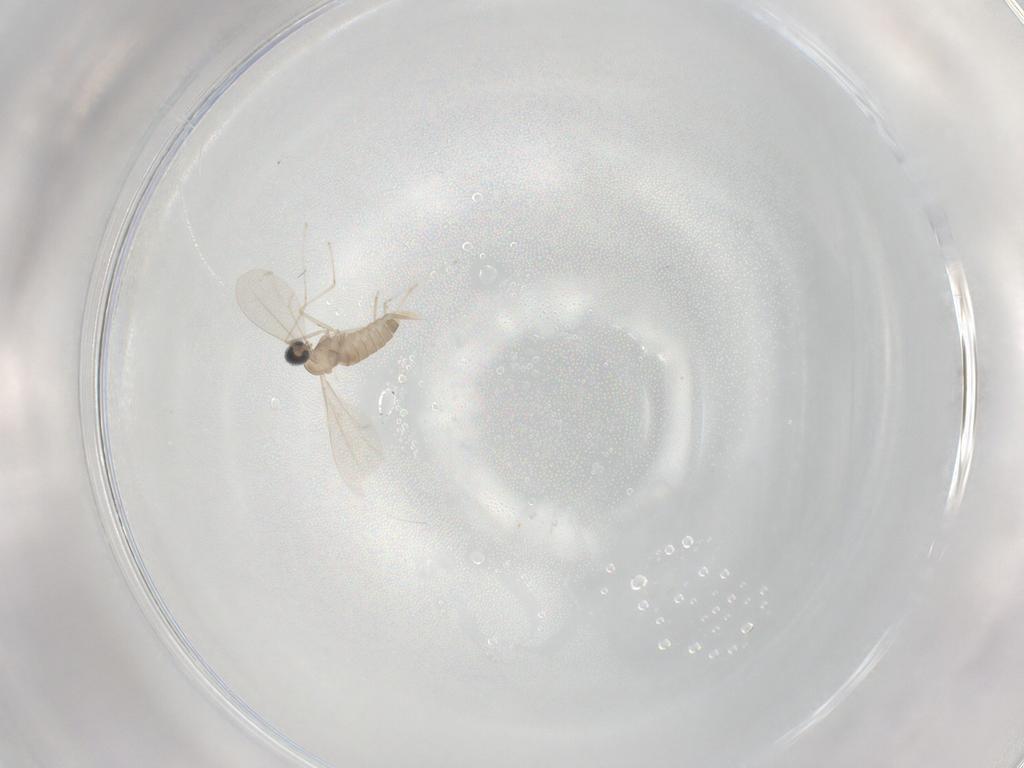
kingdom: Animalia
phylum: Arthropoda
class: Insecta
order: Diptera
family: Cecidomyiidae
